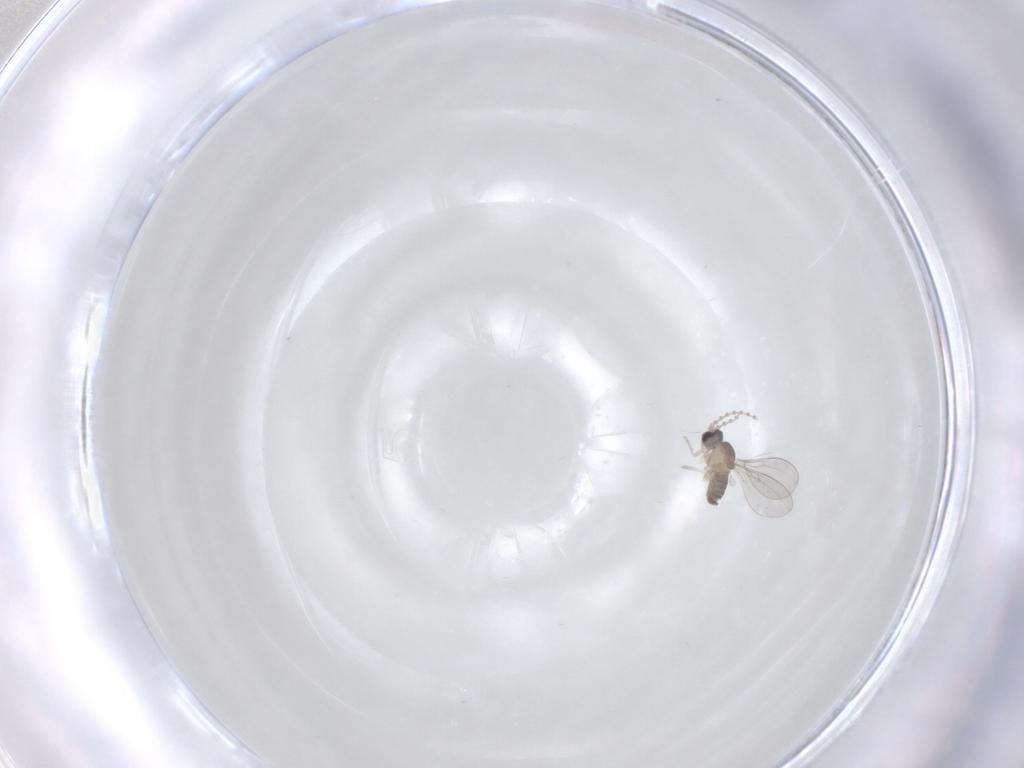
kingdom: Animalia
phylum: Arthropoda
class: Insecta
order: Diptera
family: Cecidomyiidae
